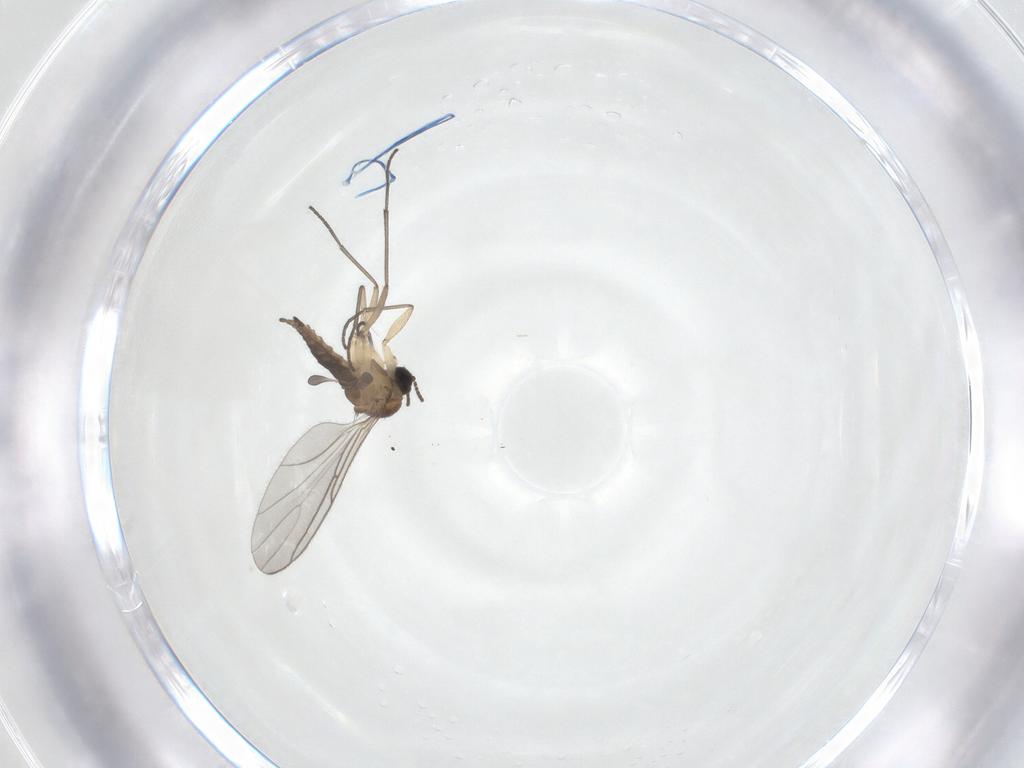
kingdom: Animalia
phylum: Arthropoda
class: Insecta
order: Diptera
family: Sciaridae
